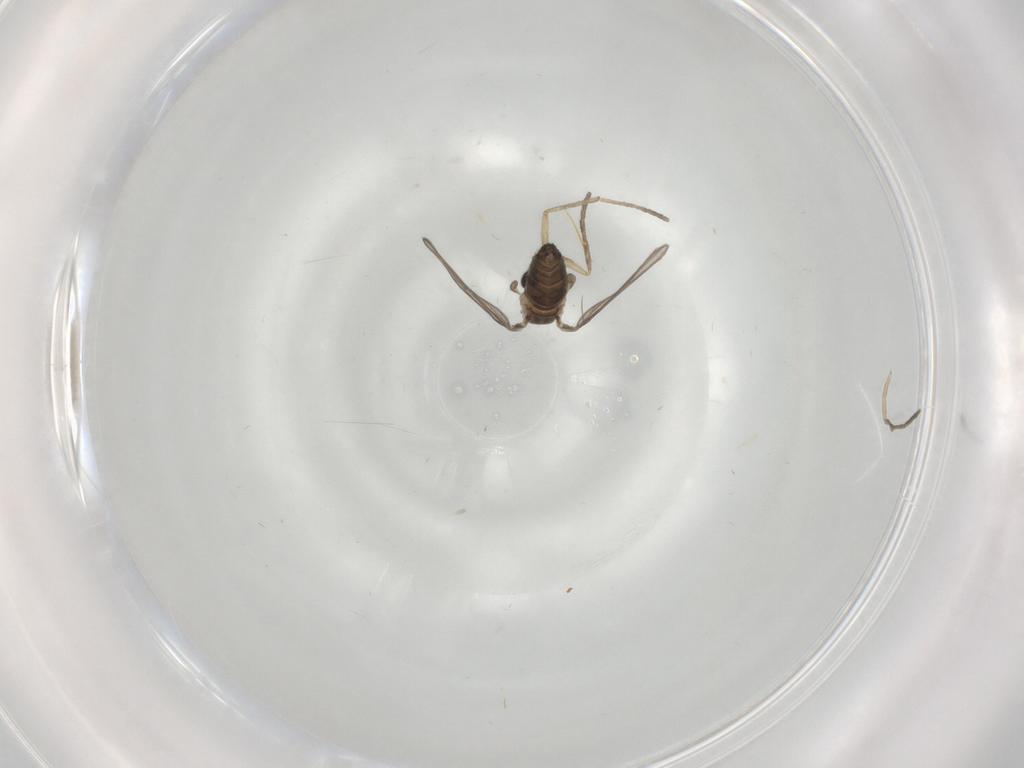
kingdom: Animalia
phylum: Arthropoda
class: Insecta
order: Diptera
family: Psychodidae
